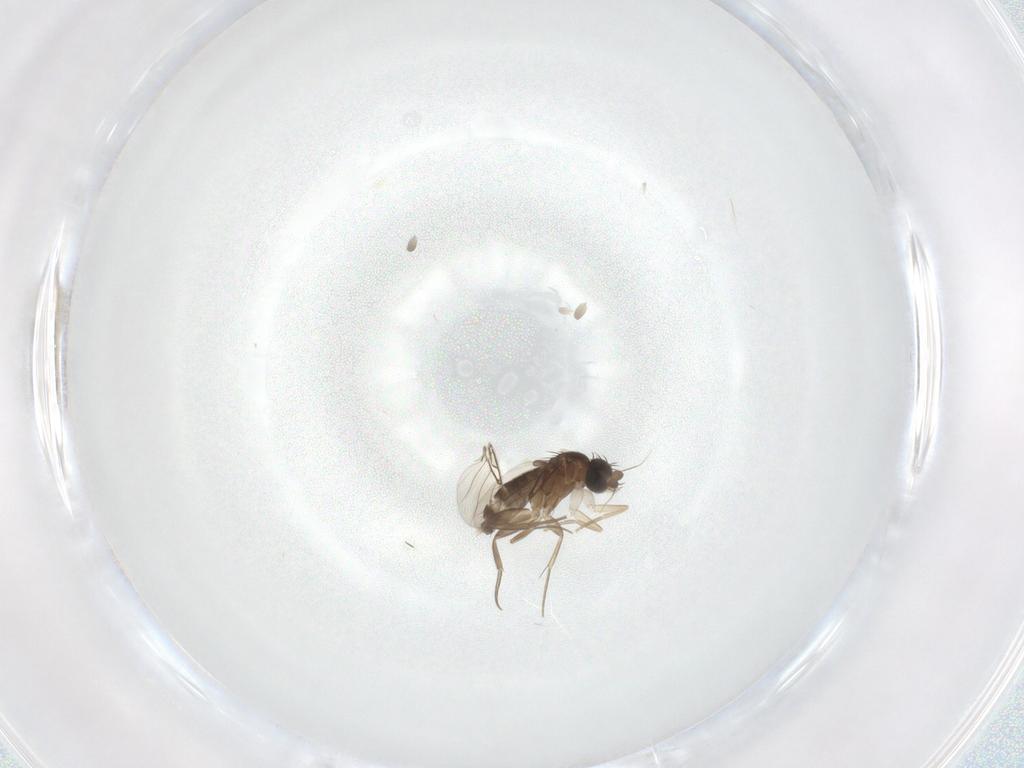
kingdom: Animalia
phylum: Arthropoda
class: Insecta
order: Diptera
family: Phoridae
